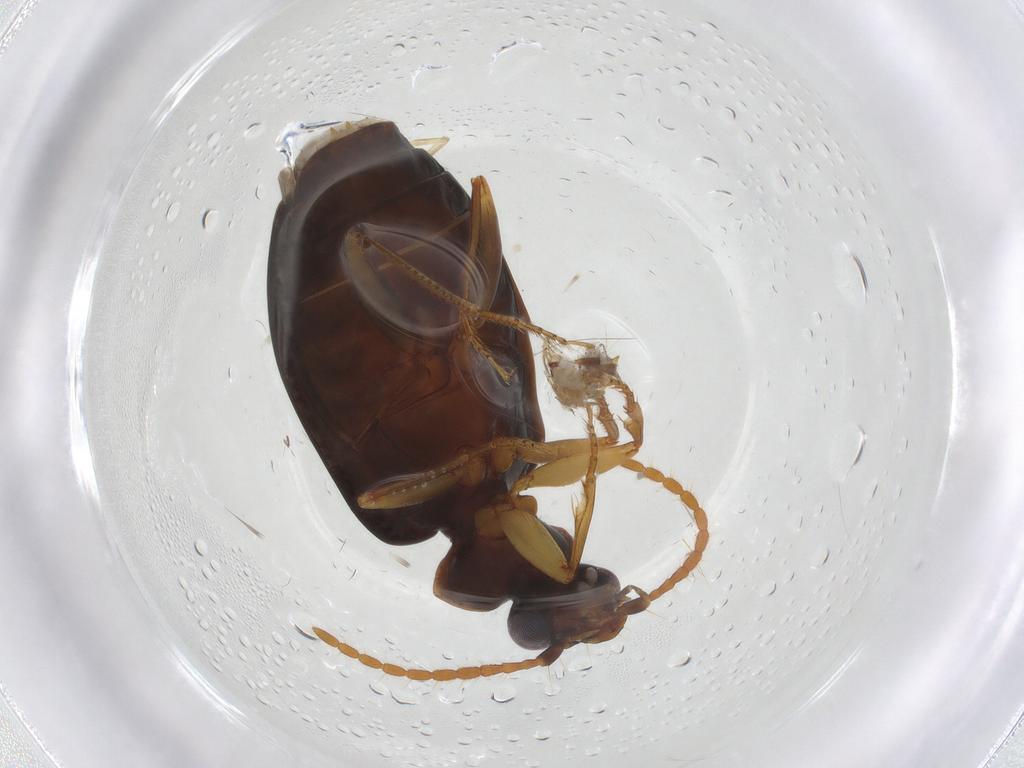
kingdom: Animalia
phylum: Arthropoda
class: Insecta
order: Coleoptera
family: Carabidae
